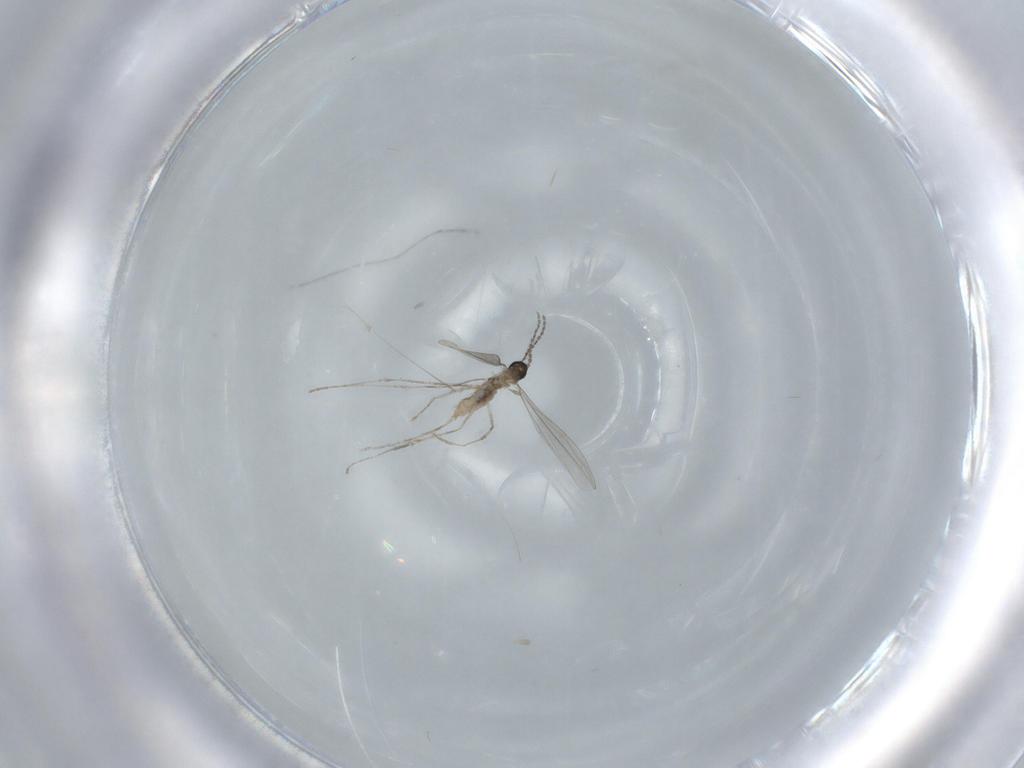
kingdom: Animalia
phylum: Arthropoda
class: Insecta
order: Diptera
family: Cecidomyiidae
